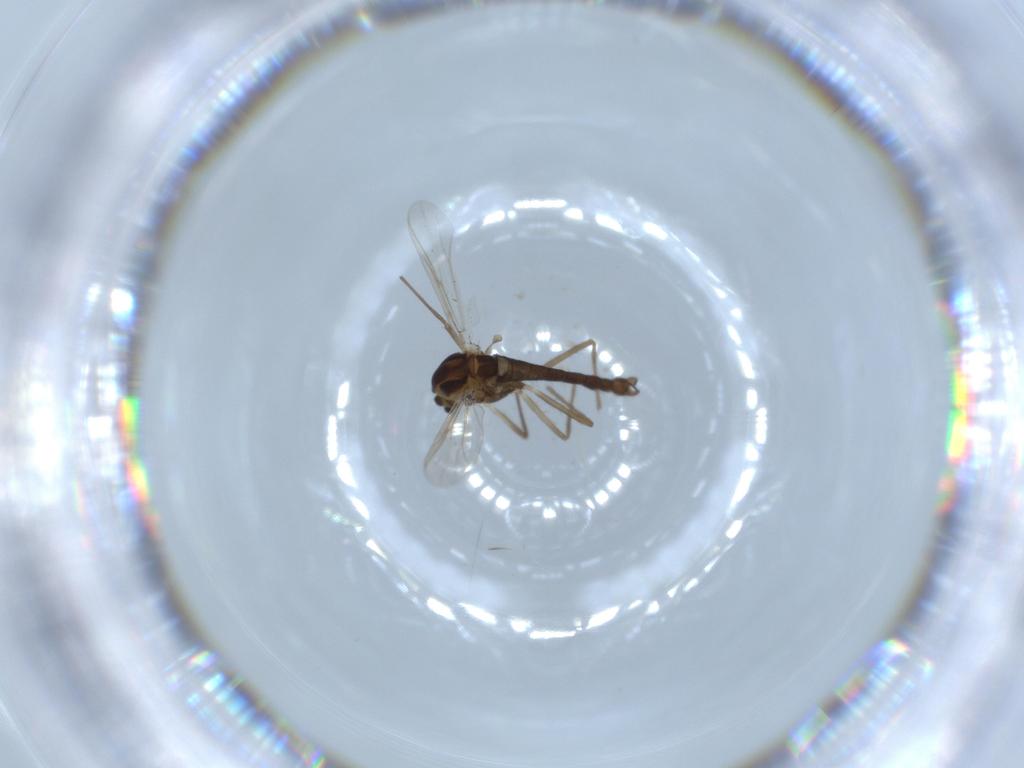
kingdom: Animalia
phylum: Arthropoda
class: Insecta
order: Diptera
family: Chironomidae
